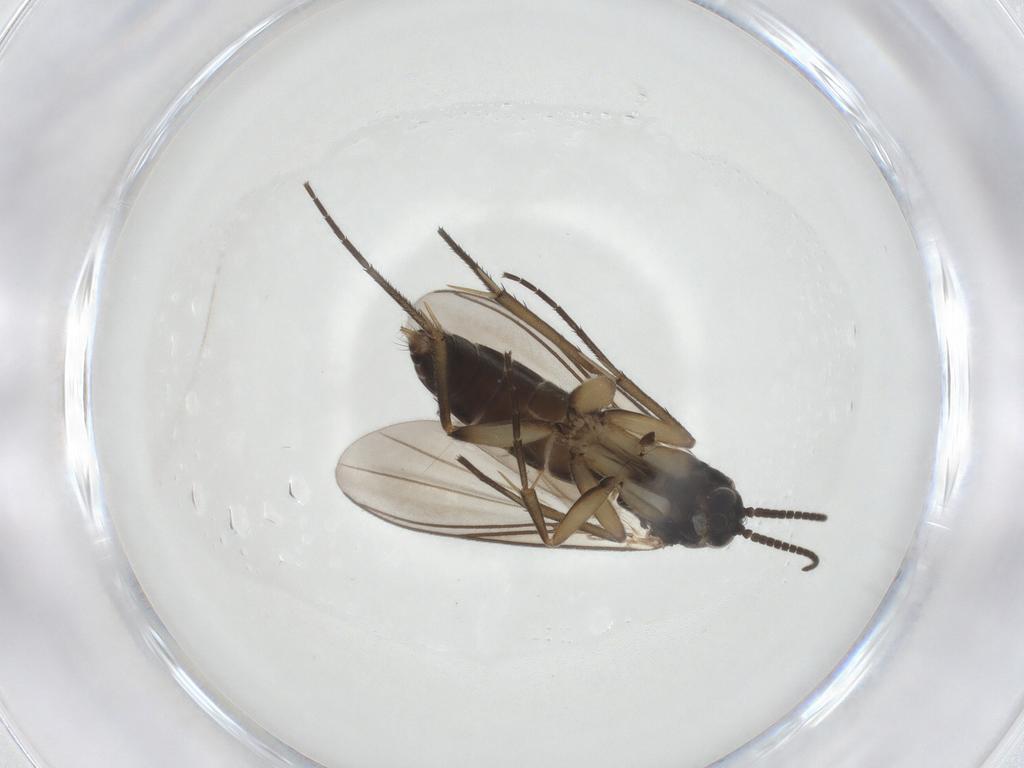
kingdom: Animalia
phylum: Arthropoda
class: Insecta
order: Diptera
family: Mycetophilidae
